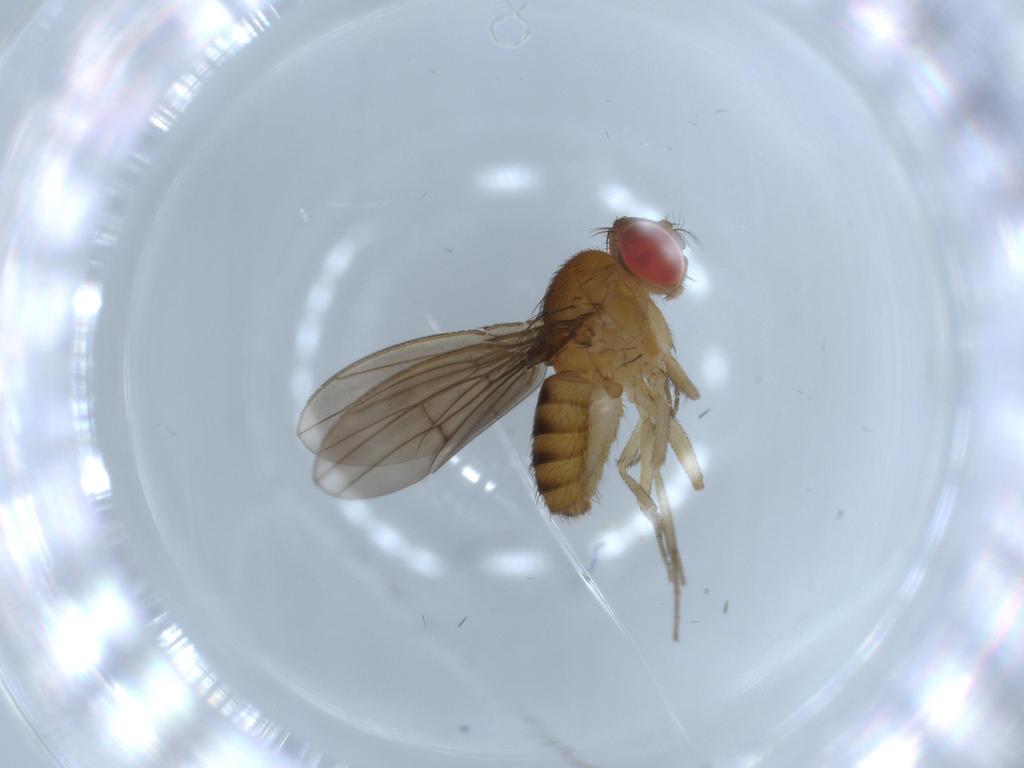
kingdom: Animalia
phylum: Arthropoda
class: Insecta
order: Diptera
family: Drosophilidae
